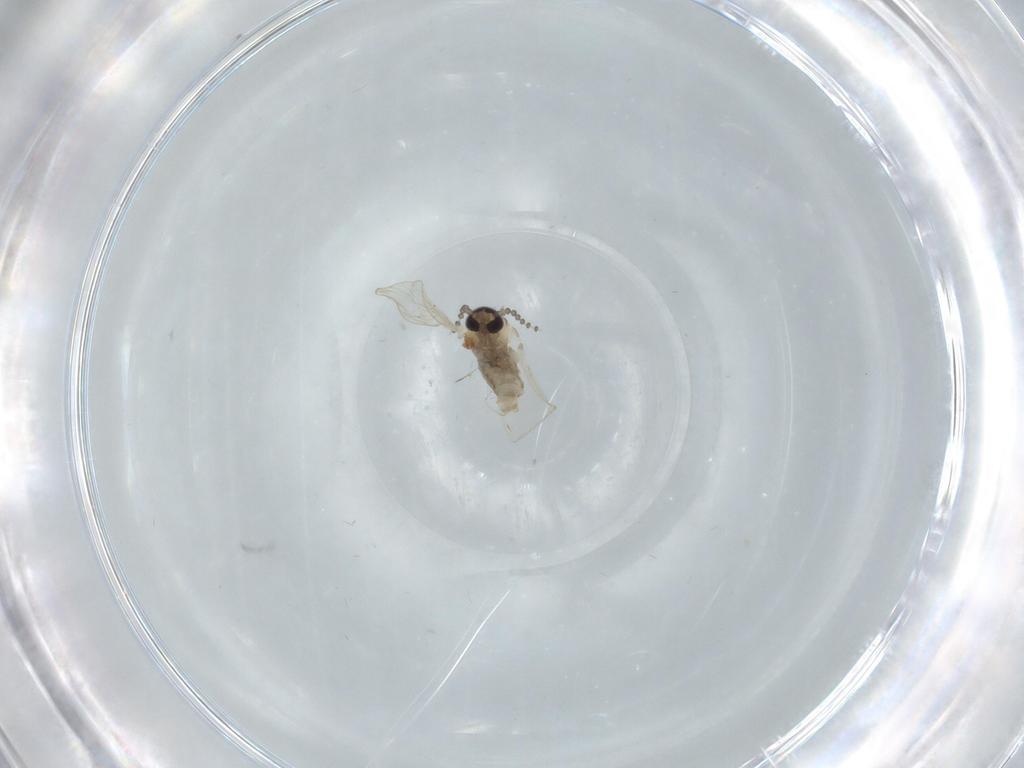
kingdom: Animalia
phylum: Arthropoda
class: Insecta
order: Diptera
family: Psychodidae
